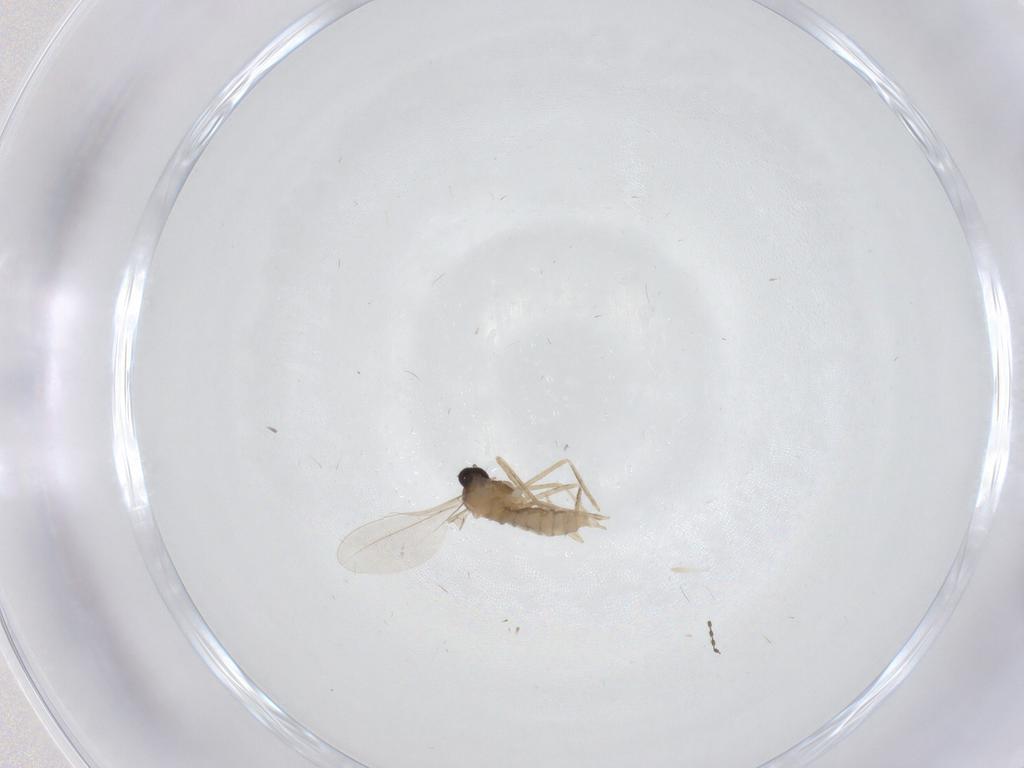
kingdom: Animalia
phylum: Arthropoda
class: Insecta
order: Diptera
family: Cecidomyiidae
